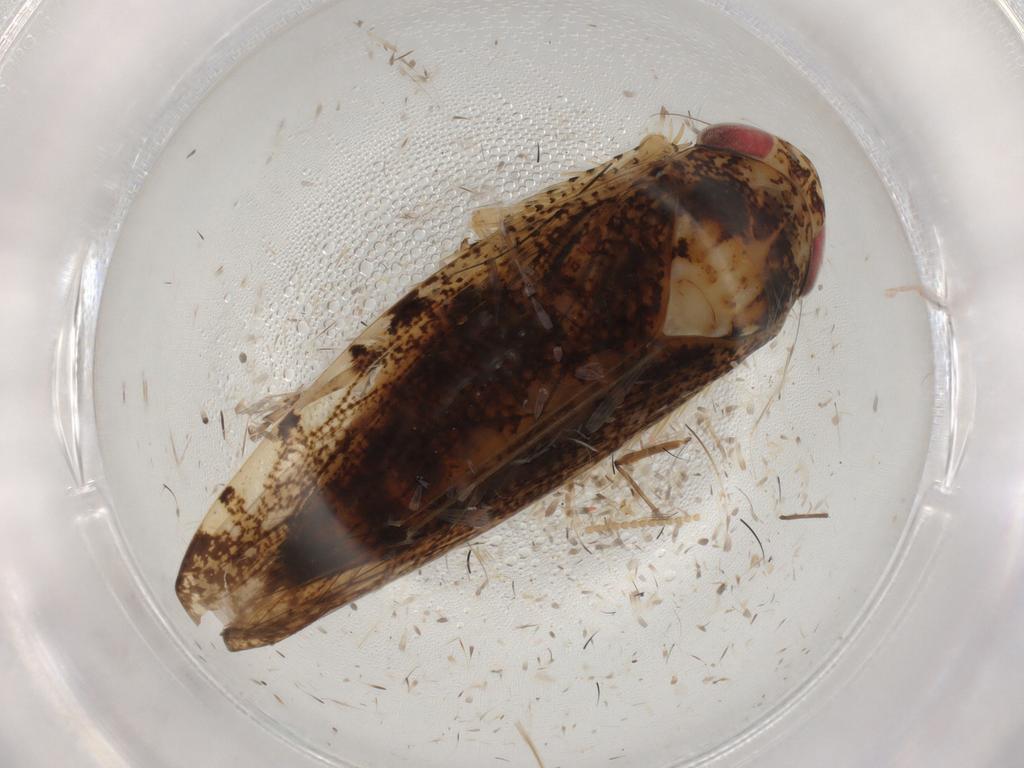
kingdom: Animalia
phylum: Arthropoda
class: Insecta
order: Hemiptera
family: Cicadellidae
